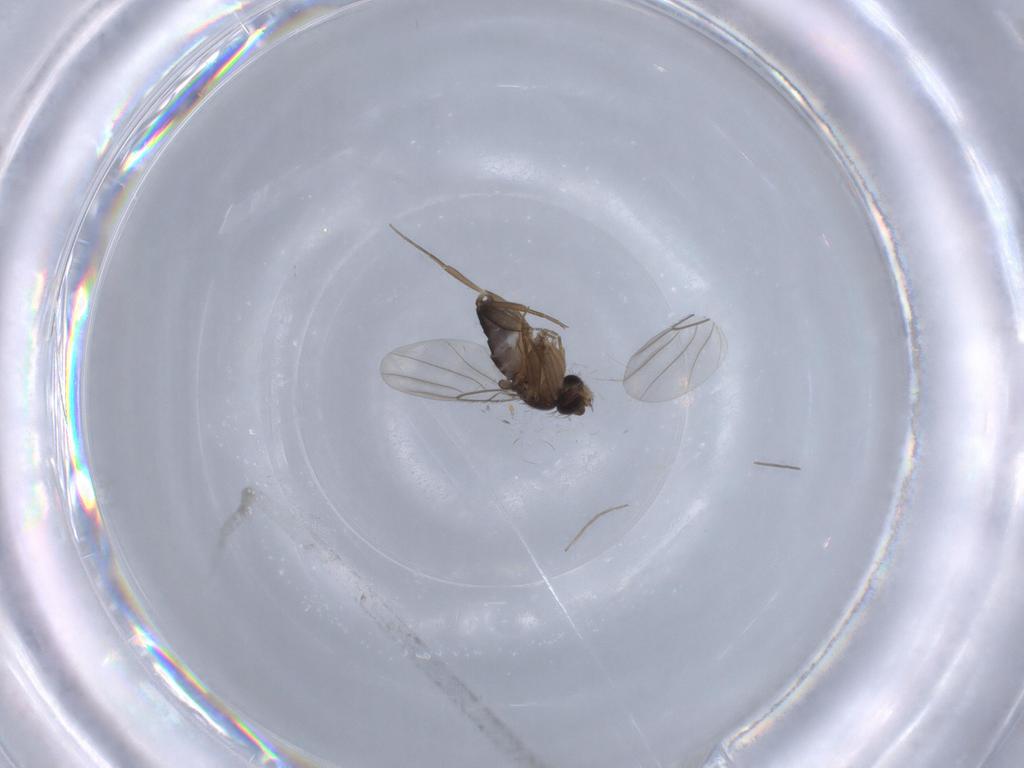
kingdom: Animalia
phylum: Arthropoda
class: Insecta
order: Diptera
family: Phoridae
